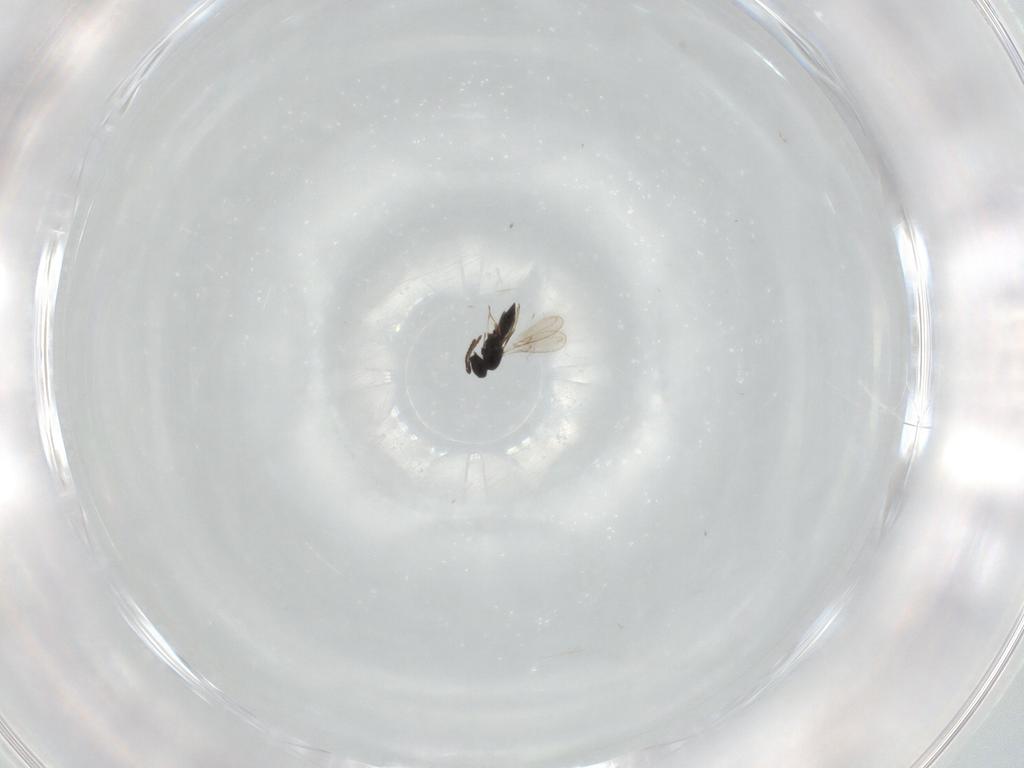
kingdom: Animalia
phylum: Arthropoda
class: Insecta
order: Hymenoptera
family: Scelionidae
